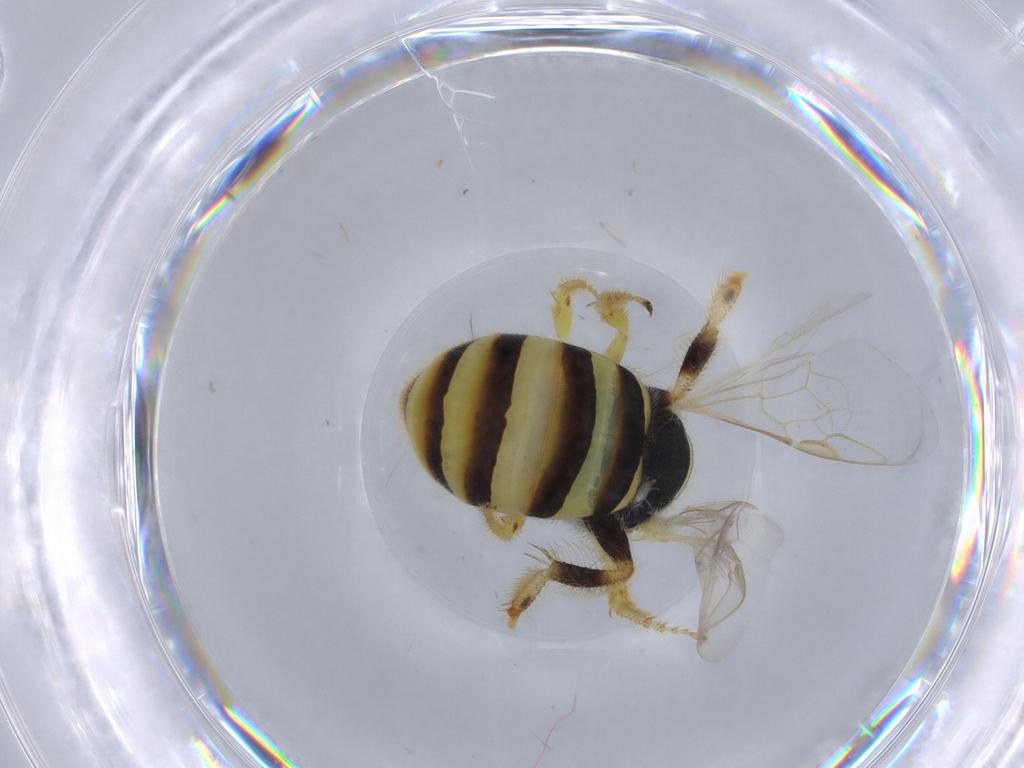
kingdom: Animalia
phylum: Arthropoda
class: Insecta
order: Hymenoptera
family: Halictidae
